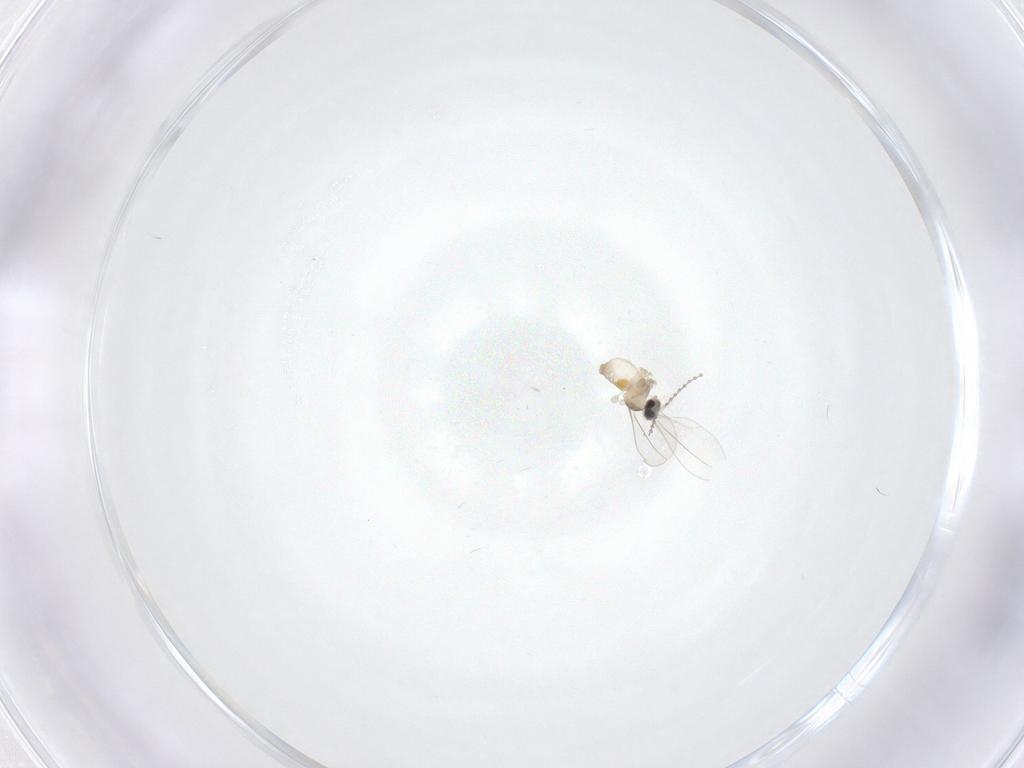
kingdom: Animalia
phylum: Arthropoda
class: Insecta
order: Diptera
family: Cecidomyiidae
